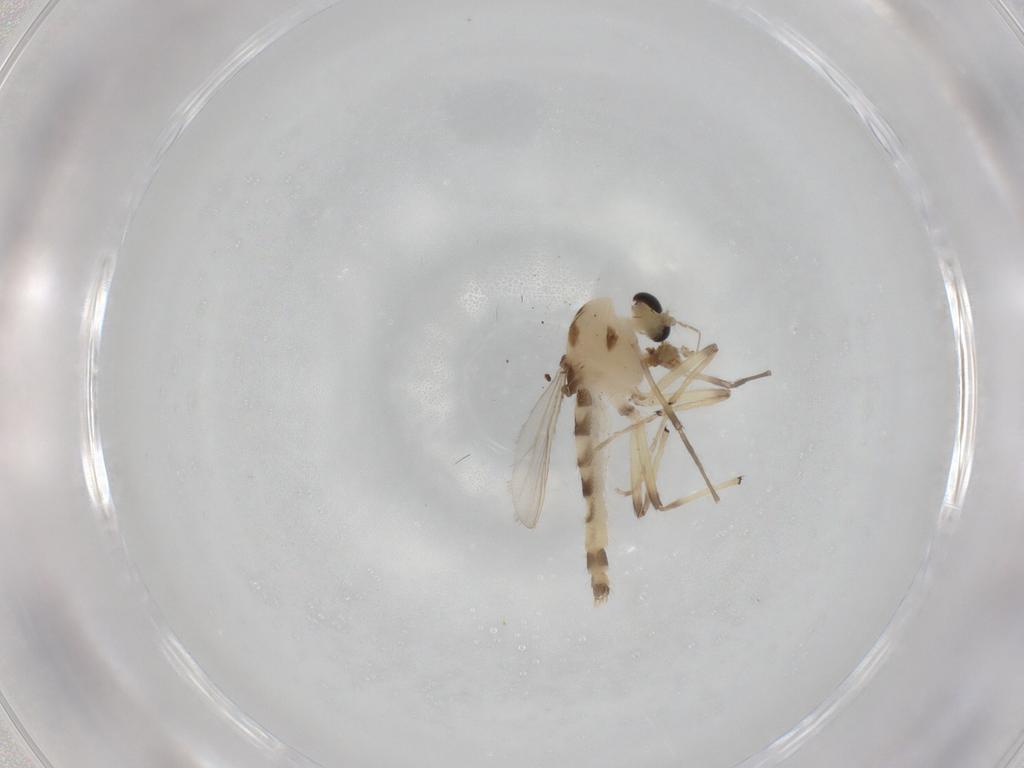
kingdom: Animalia
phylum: Arthropoda
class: Insecta
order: Diptera
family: Chironomidae
